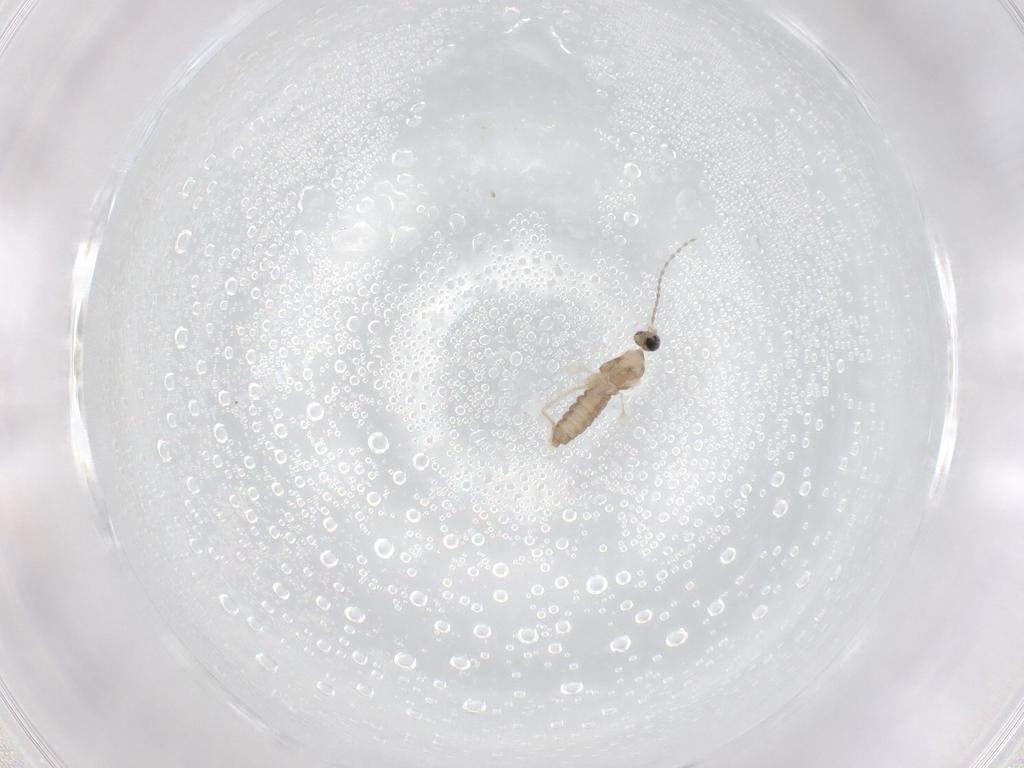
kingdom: Animalia
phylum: Arthropoda
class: Insecta
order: Diptera
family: Cecidomyiidae
